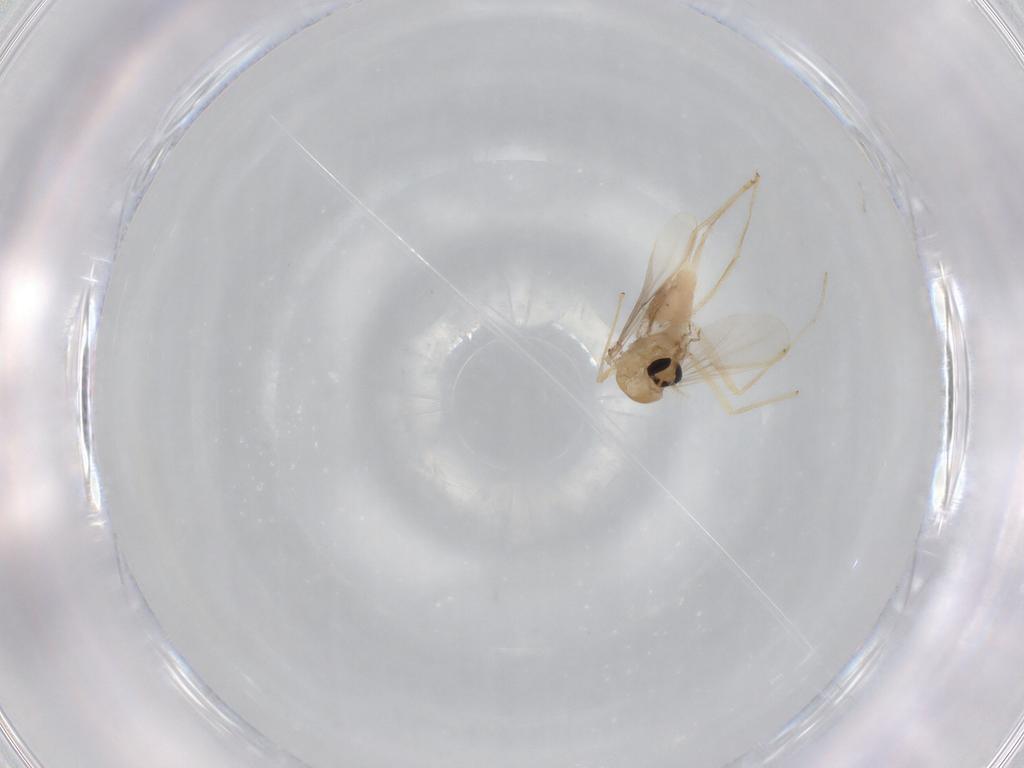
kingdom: Animalia
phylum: Arthropoda
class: Insecta
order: Diptera
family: Chironomidae
